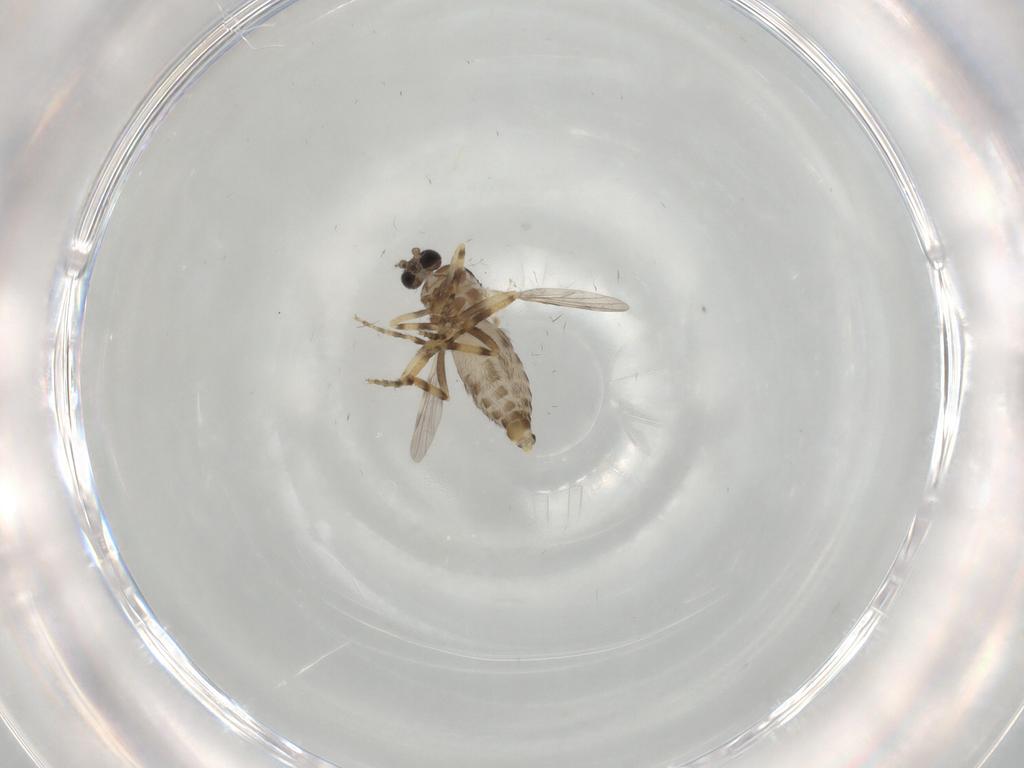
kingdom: Animalia
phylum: Arthropoda
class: Insecta
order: Diptera
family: Ceratopogonidae
